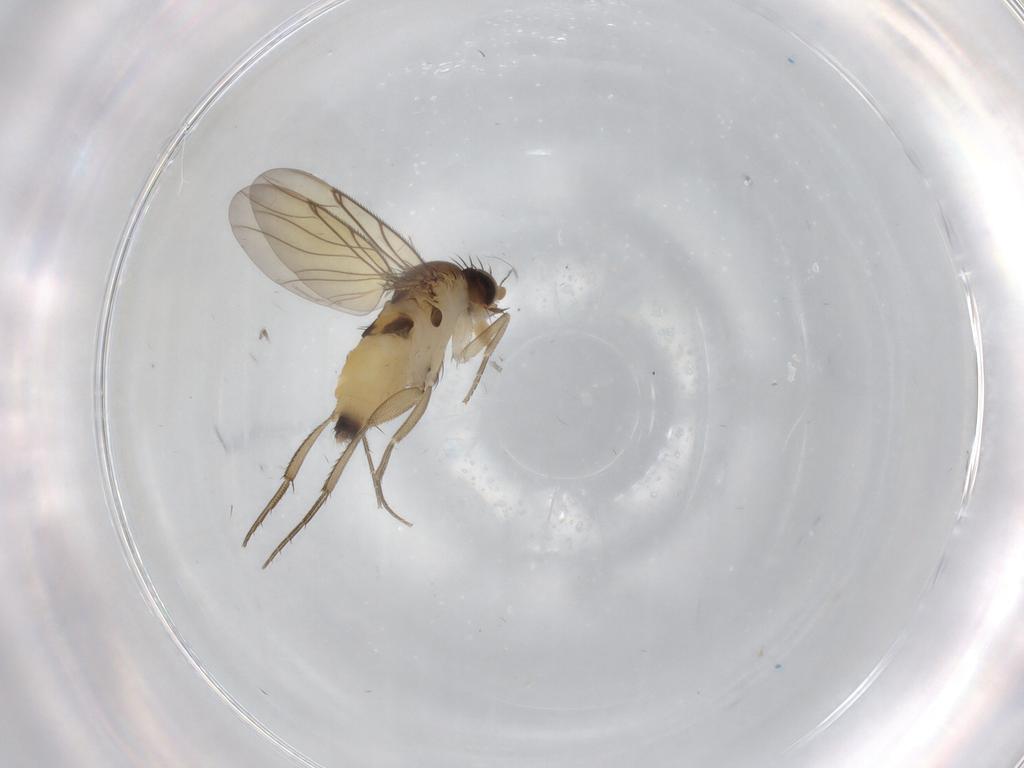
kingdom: Animalia
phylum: Arthropoda
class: Insecta
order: Diptera
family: Phoridae
